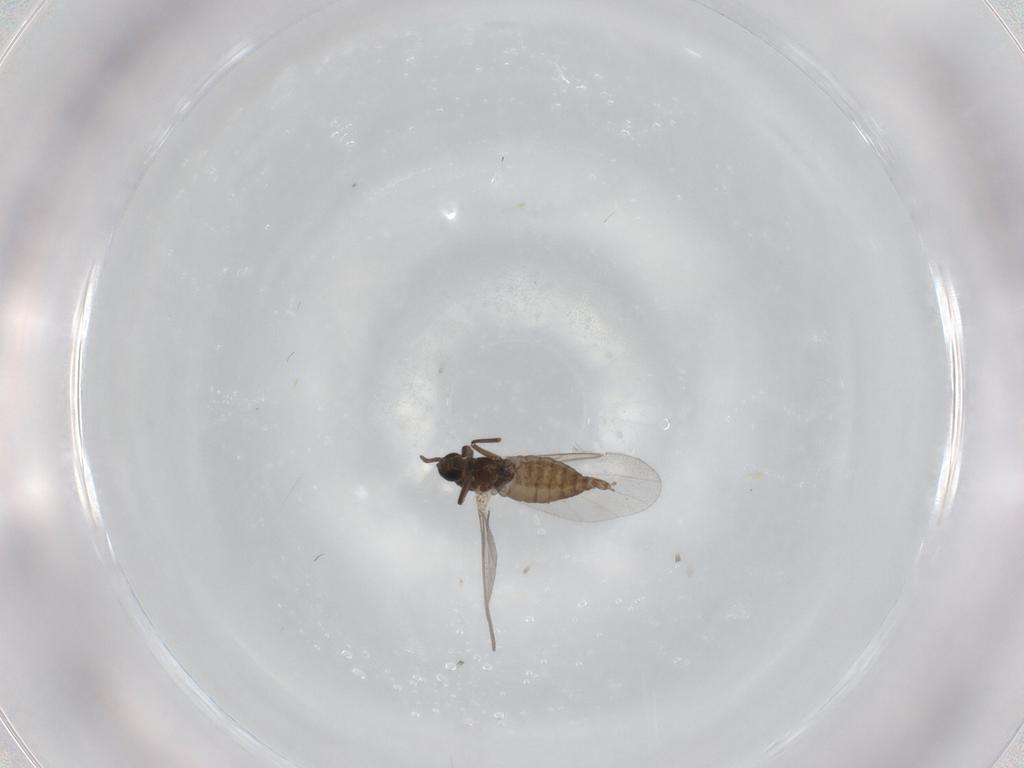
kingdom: Animalia
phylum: Arthropoda
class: Insecta
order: Diptera
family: Cecidomyiidae
